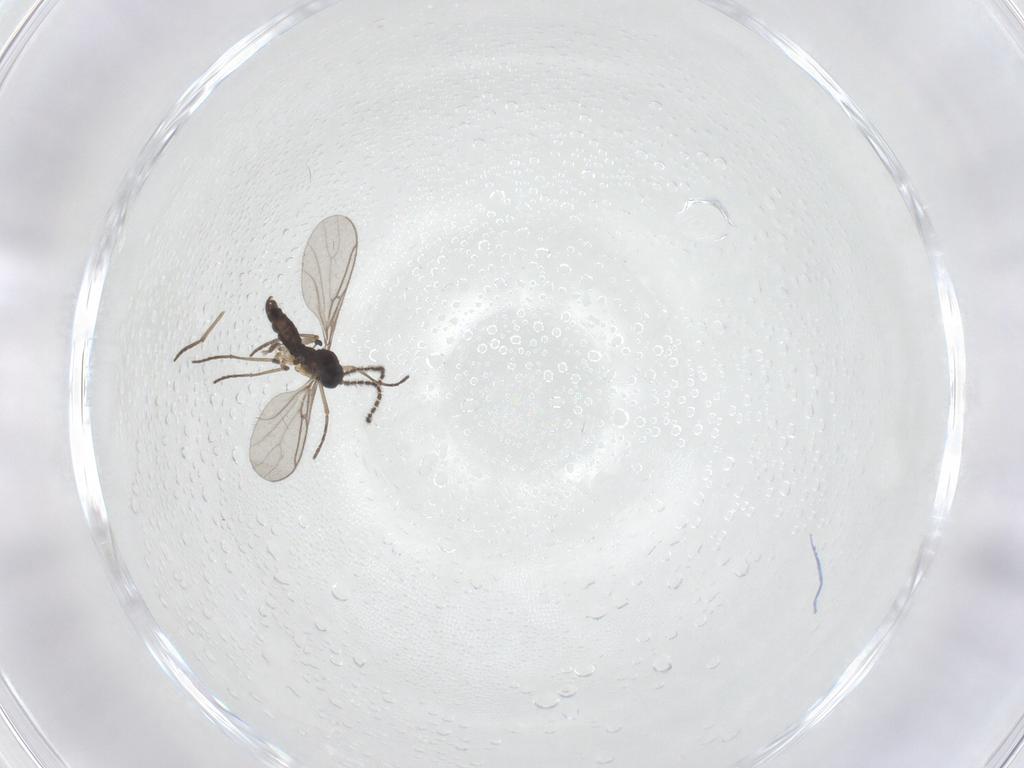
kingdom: Animalia
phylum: Arthropoda
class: Insecta
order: Diptera
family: Sciaridae
